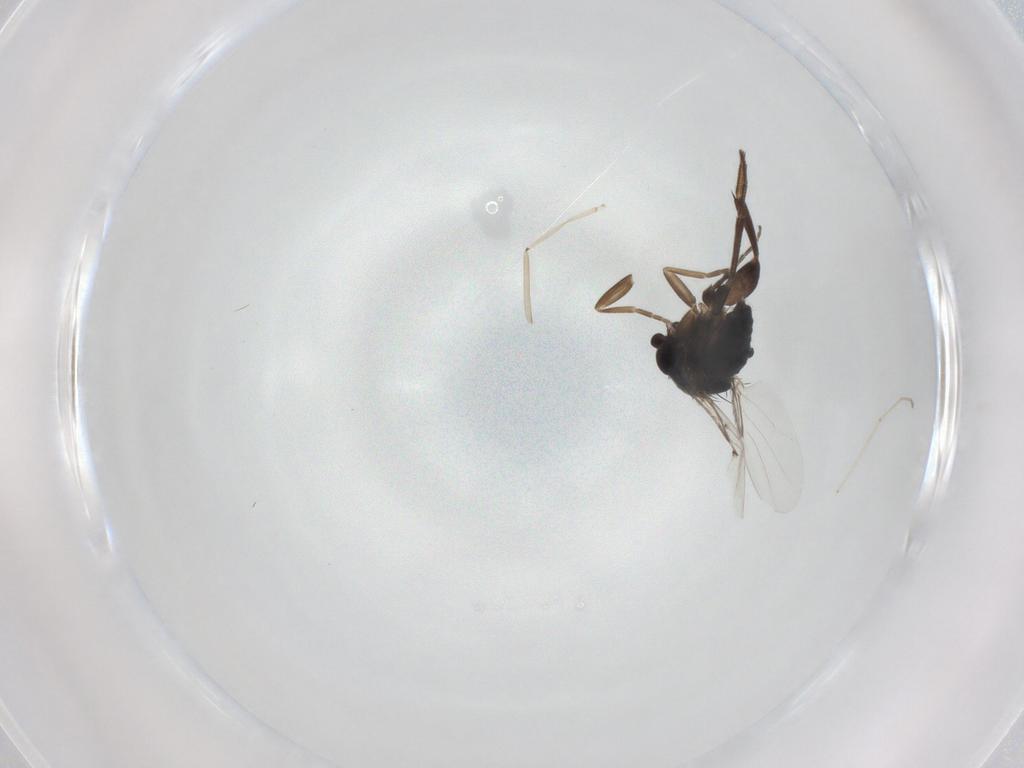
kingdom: Animalia
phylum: Arthropoda
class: Insecta
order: Diptera
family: Phoridae
